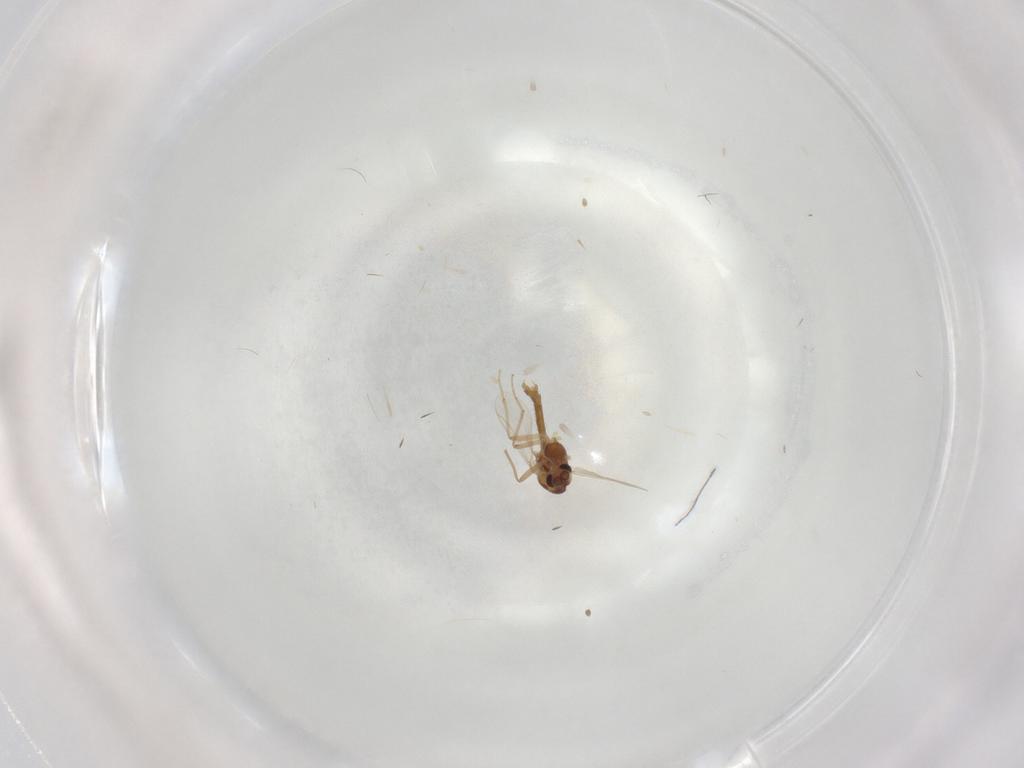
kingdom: Animalia
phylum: Arthropoda
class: Insecta
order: Diptera
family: Chironomidae
